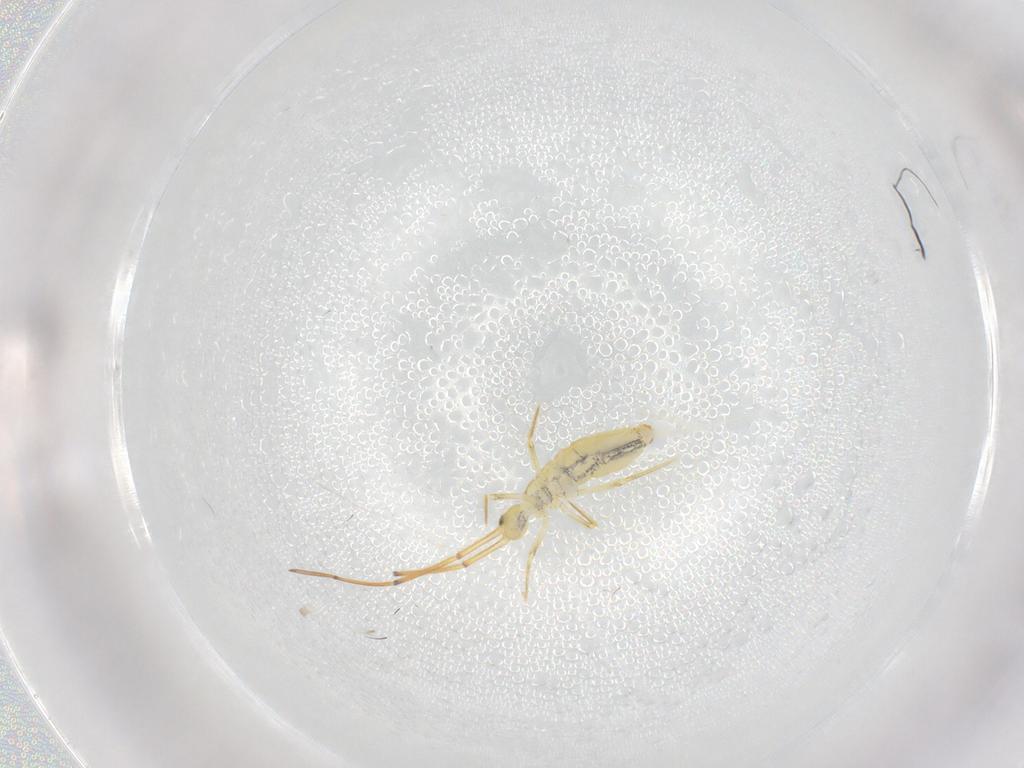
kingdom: Animalia
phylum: Arthropoda
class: Collembola
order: Entomobryomorpha
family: Entomobryidae
